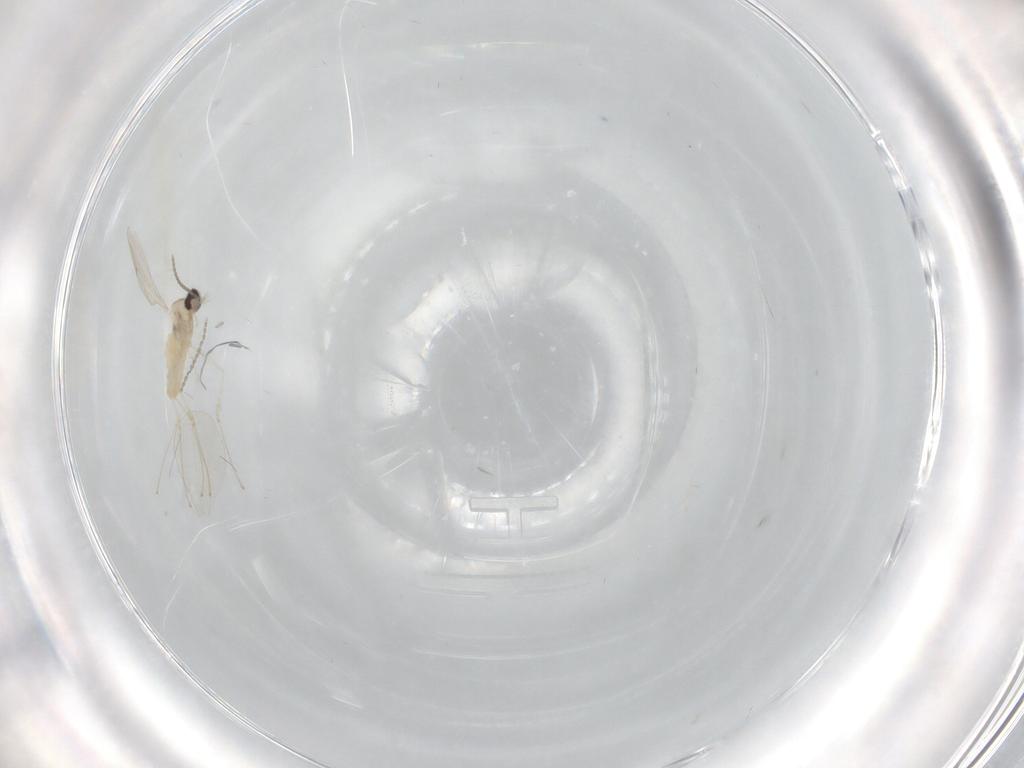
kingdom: Animalia
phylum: Arthropoda
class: Insecta
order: Diptera
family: Cecidomyiidae
